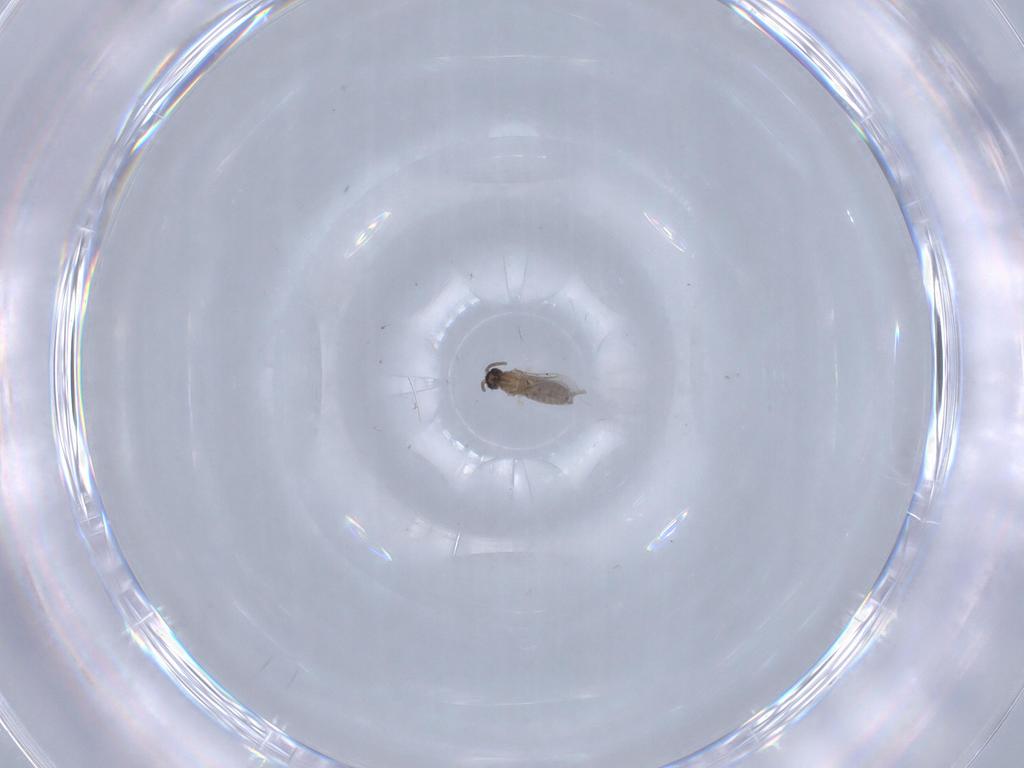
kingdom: Animalia
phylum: Arthropoda
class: Insecta
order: Diptera
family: Cecidomyiidae
